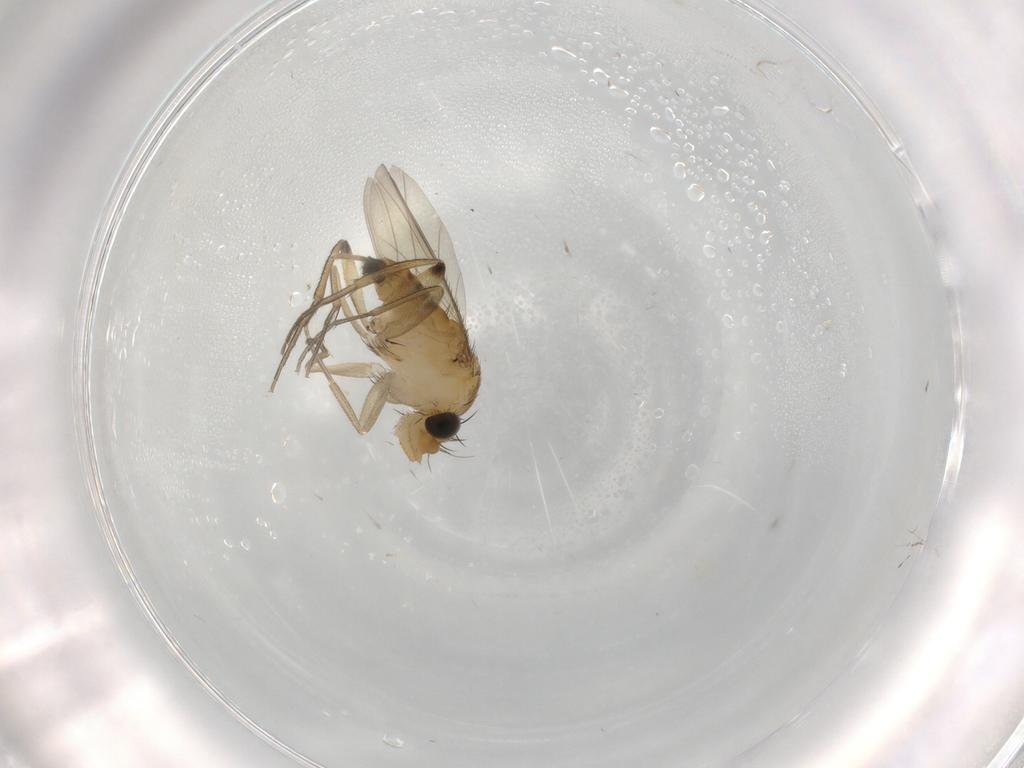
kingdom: Animalia
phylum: Arthropoda
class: Insecta
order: Diptera
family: Phoridae
